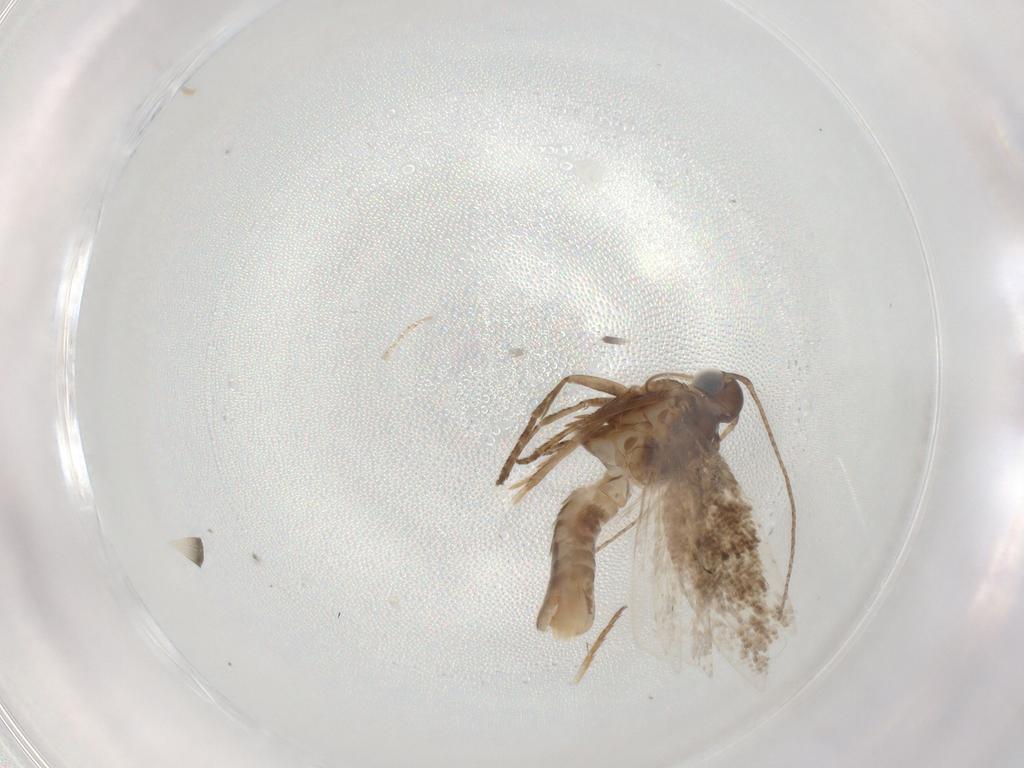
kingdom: Animalia
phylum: Arthropoda
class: Insecta
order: Lepidoptera
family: Gelechiidae
